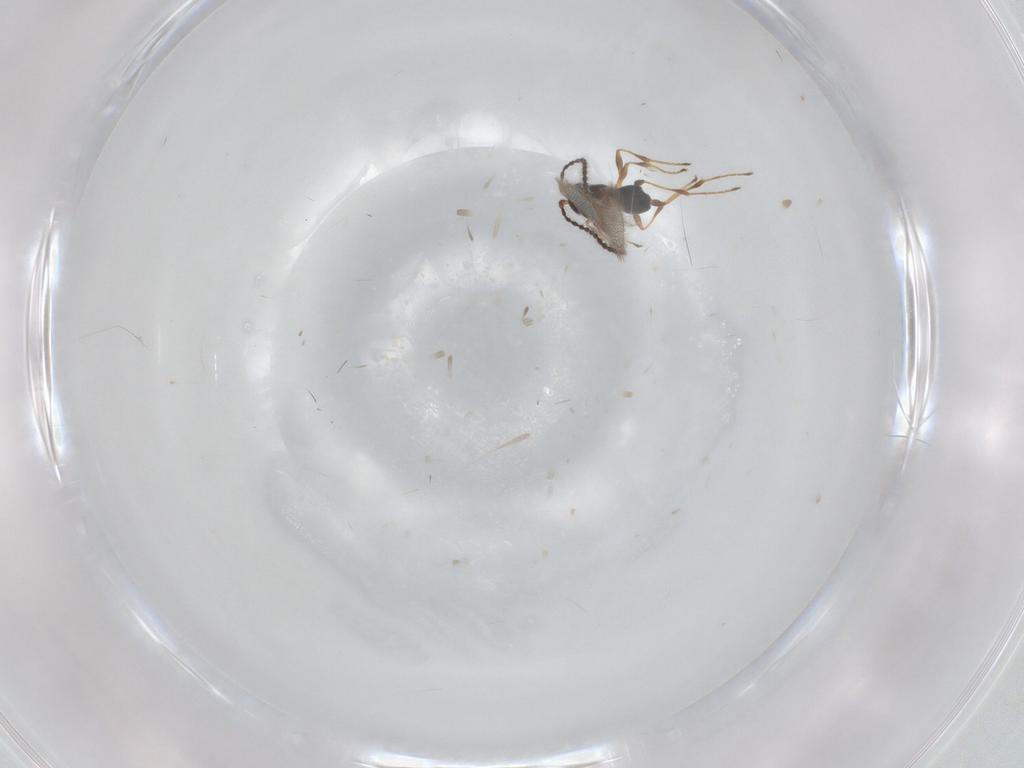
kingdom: Animalia
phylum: Arthropoda
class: Insecta
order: Hymenoptera
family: Diapriidae
